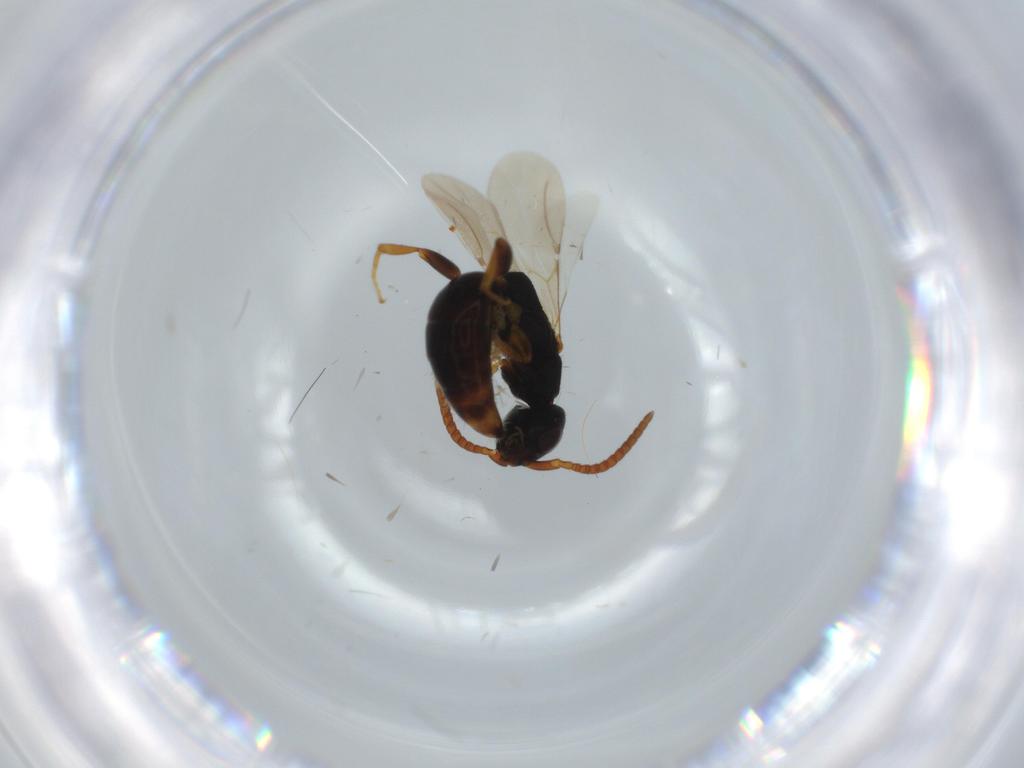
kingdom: Animalia
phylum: Arthropoda
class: Insecta
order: Hymenoptera
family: Bethylidae
